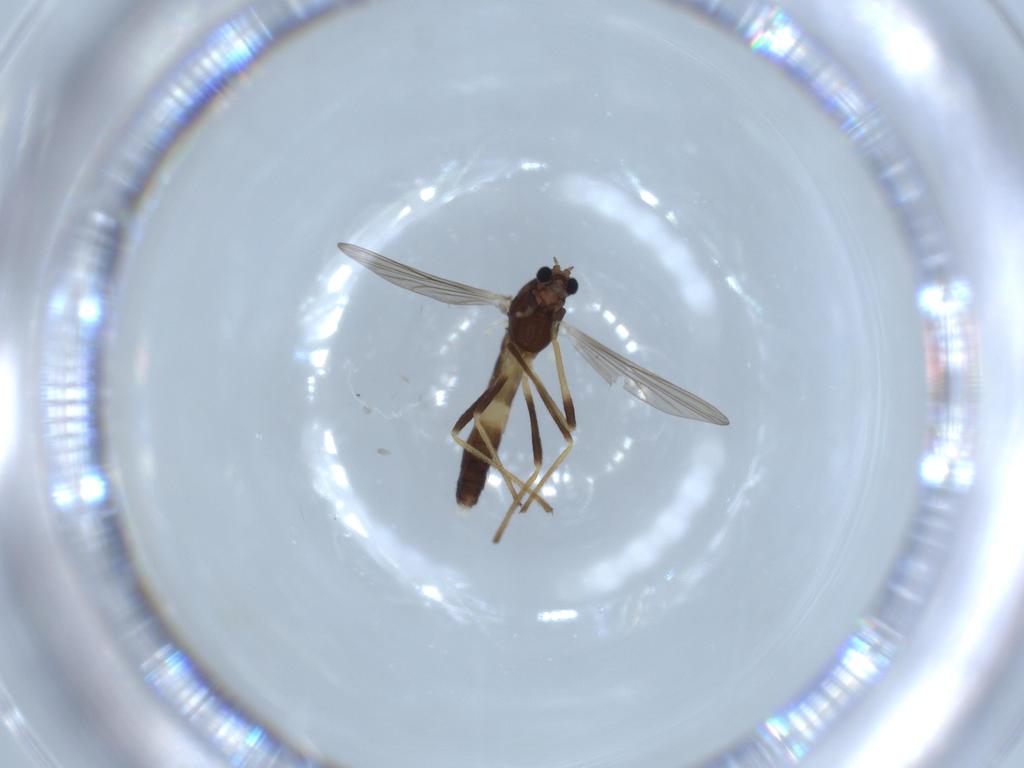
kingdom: Animalia
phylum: Arthropoda
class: Insecta
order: Diptera
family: Chironomidae
